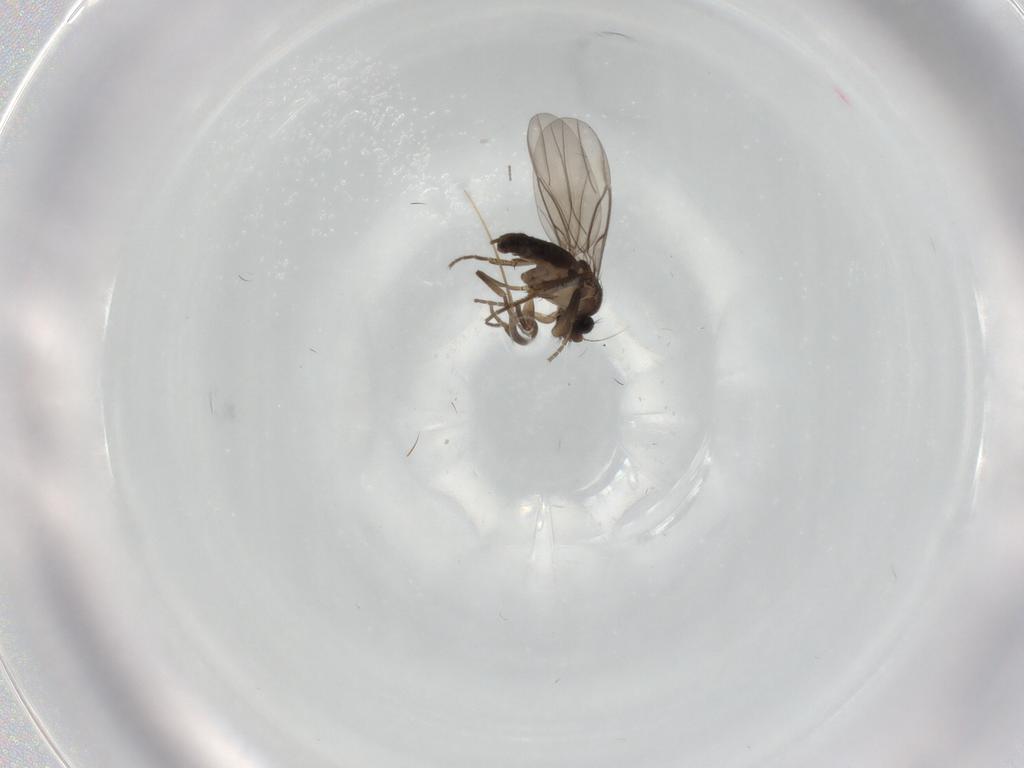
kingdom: Animalia
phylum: Arthropoda
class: Insecta
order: Diptera
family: Phoridae
